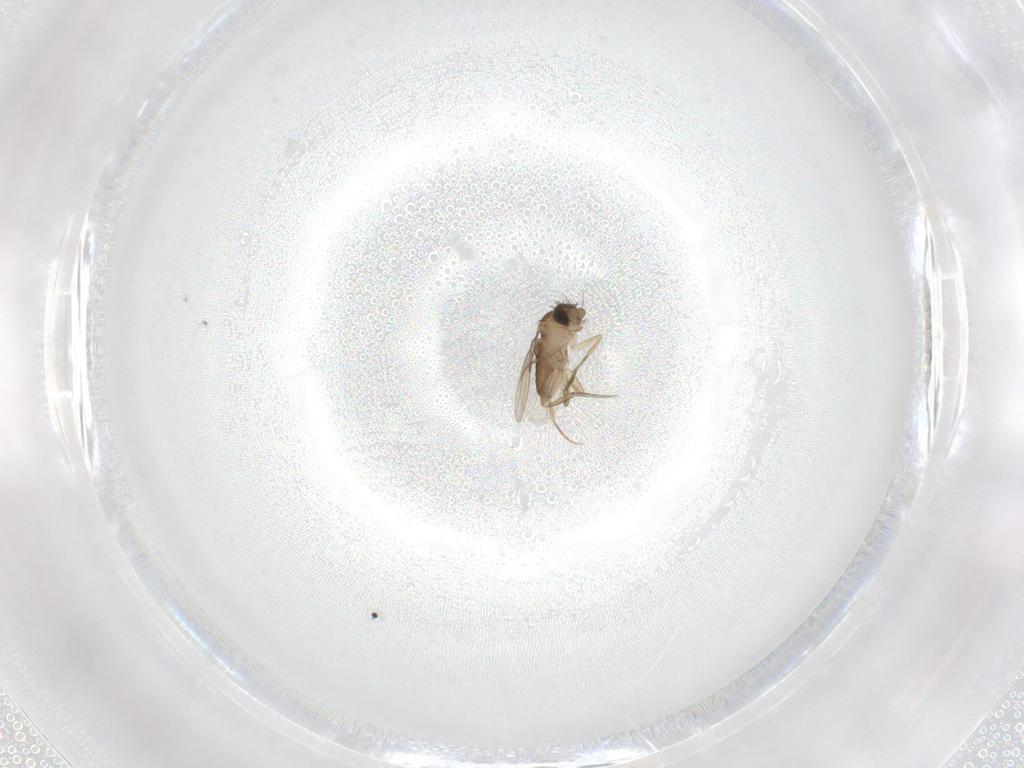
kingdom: Animalia
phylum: Arthropoda
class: Insecta
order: Diptera
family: Cecidomyiidae
